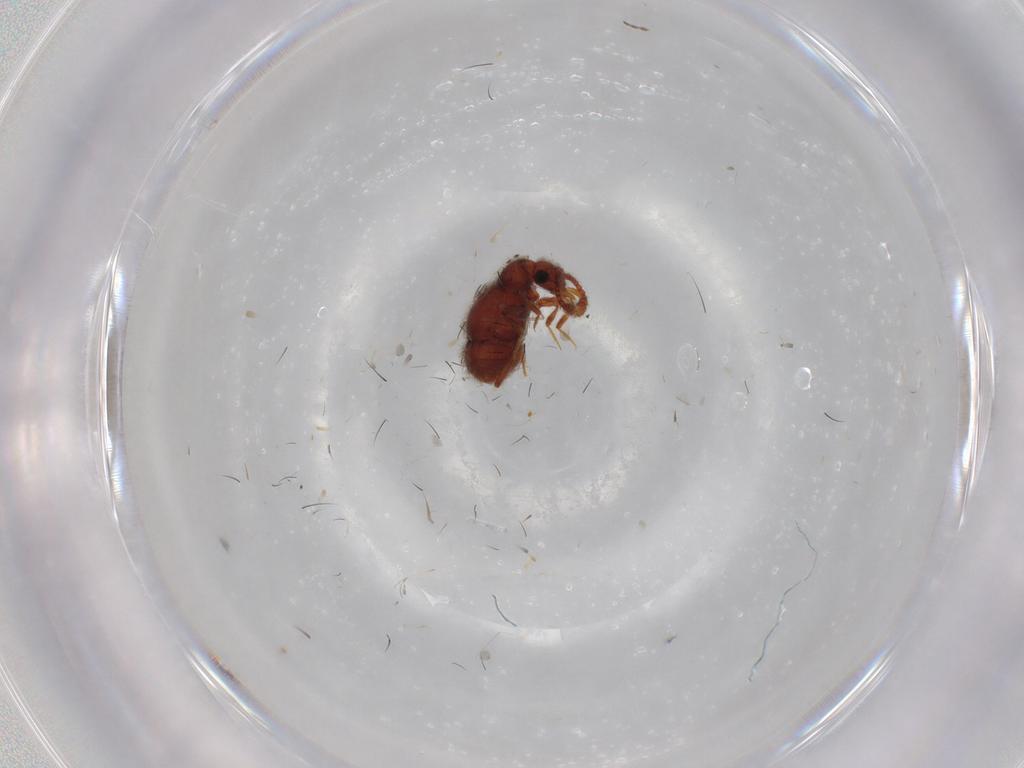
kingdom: Animalia
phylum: Arthropoda
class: Insecta
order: Coleoptera
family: Staphylinidae
